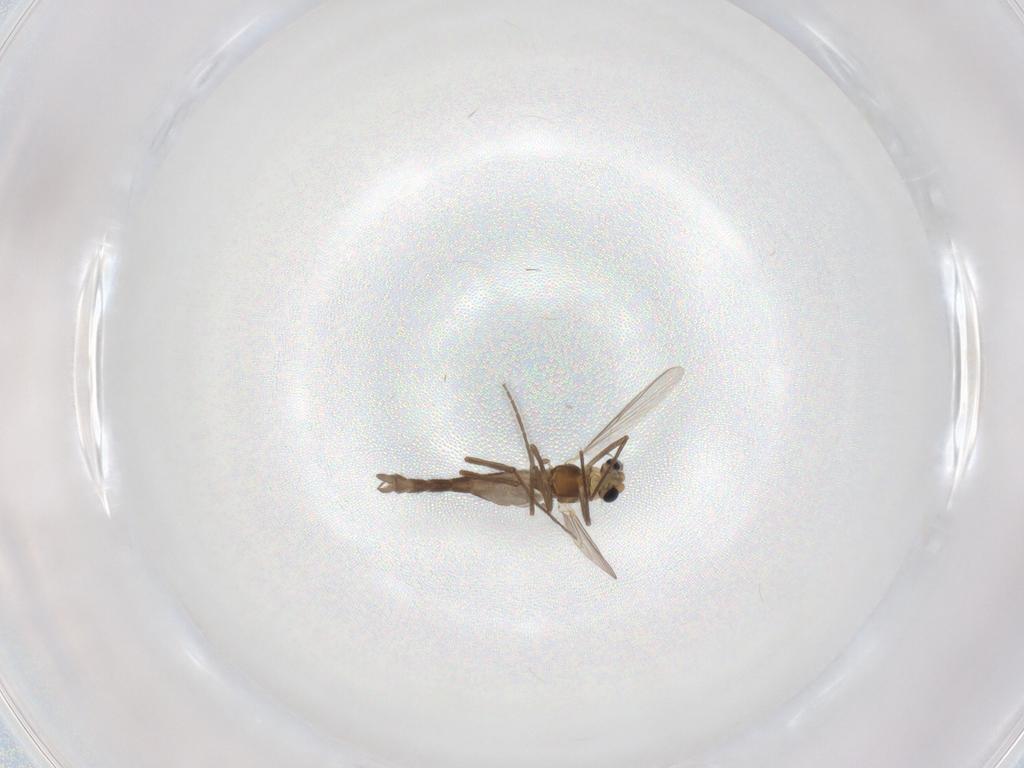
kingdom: Animalia
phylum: Arthropoda
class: Insecta
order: Diptera
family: Chironomidae
